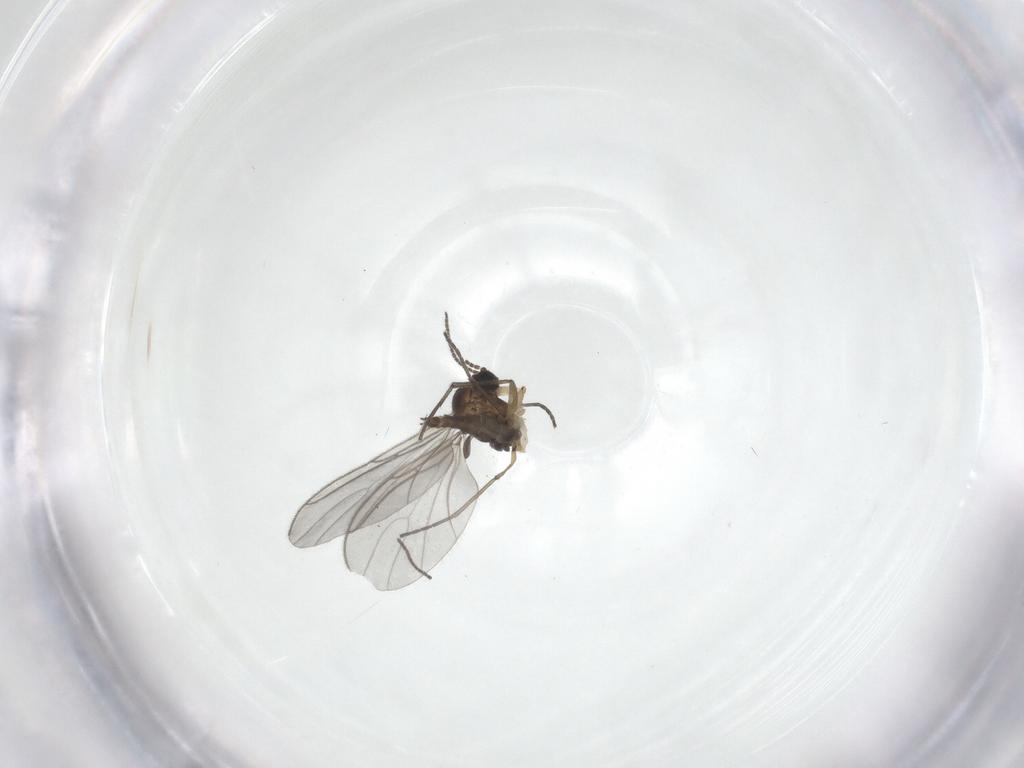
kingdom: Animalia
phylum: Arthropoda
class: Insecta
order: Diptera
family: Sciaridae
